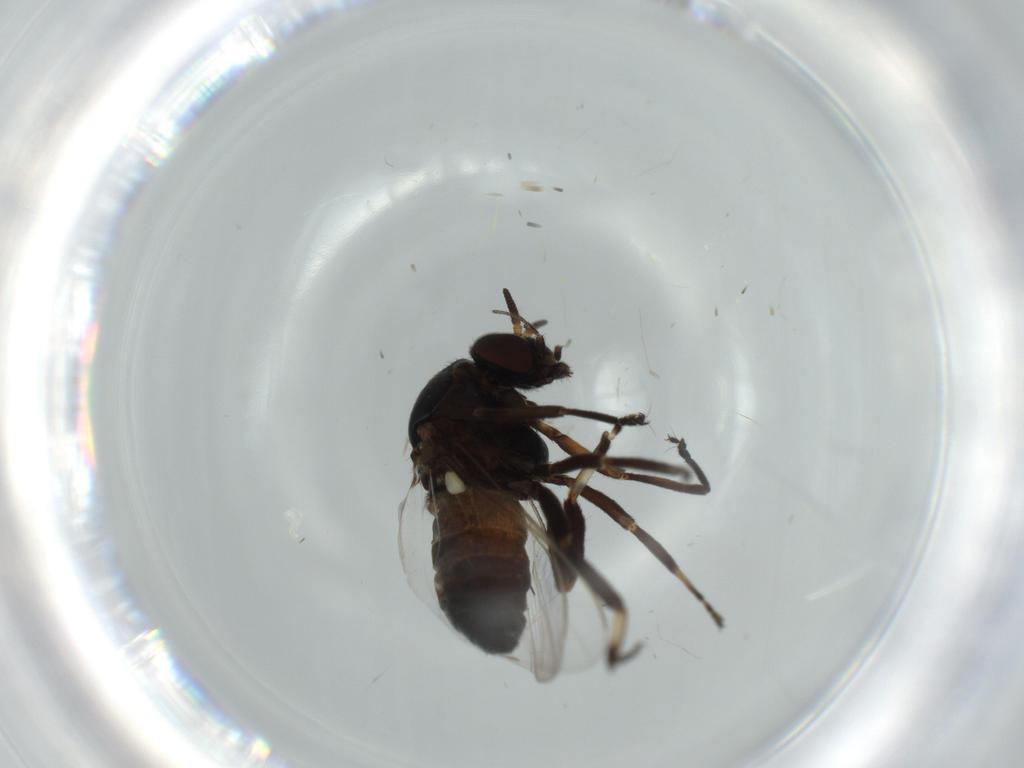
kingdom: Animalia
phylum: Arthropoda
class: Insecta
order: Diptera
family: Phoridae
